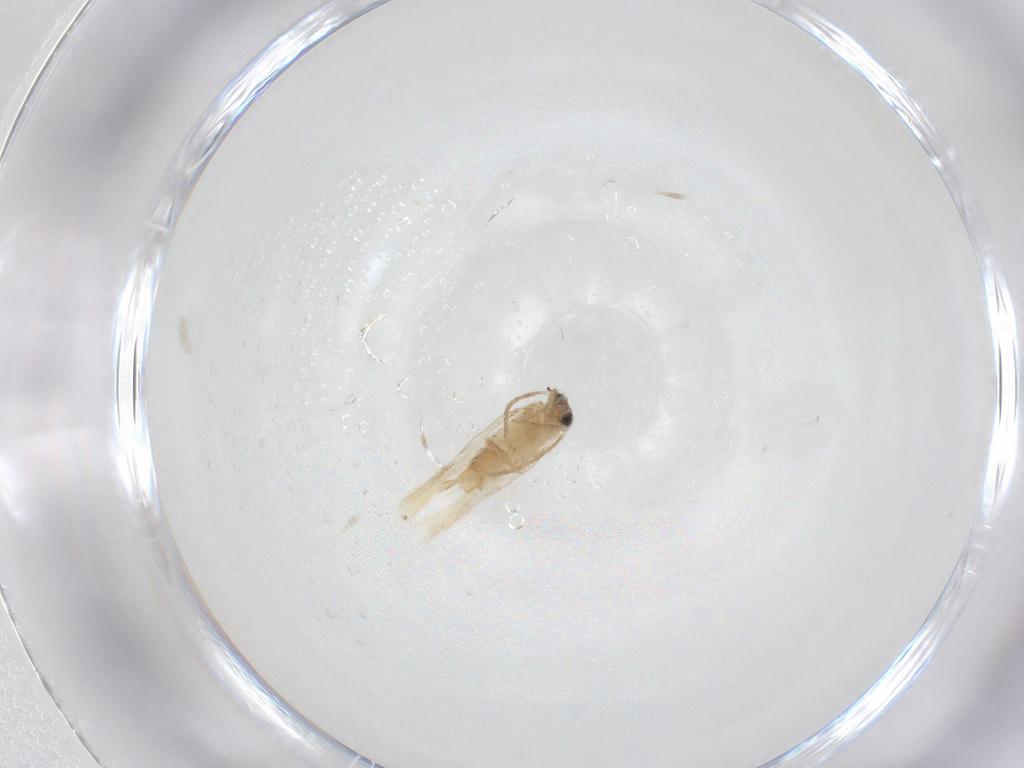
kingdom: Animalia
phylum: Arthropoda
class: Insecta
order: Lepidoptera
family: Nepticulidae
